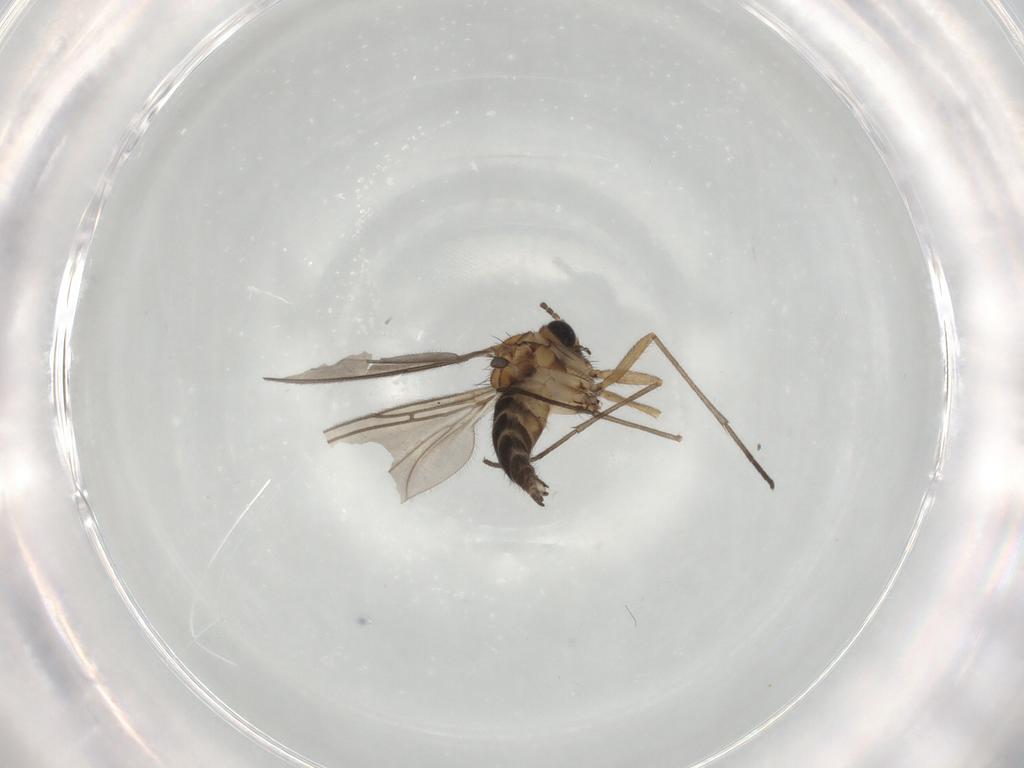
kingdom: Animalia
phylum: Arthropoda
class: Insecta
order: Diptera
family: Sciaridae
